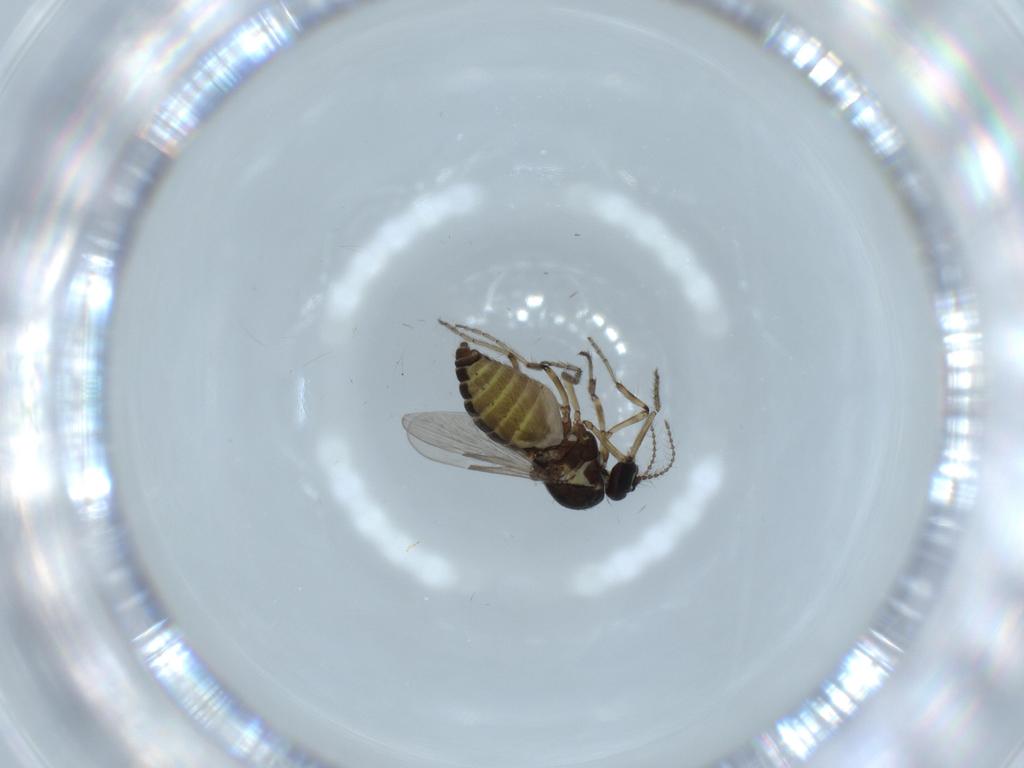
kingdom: Animalia
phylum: Arthropoda
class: Insecta
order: Diptera
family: Ceratopogonidae
